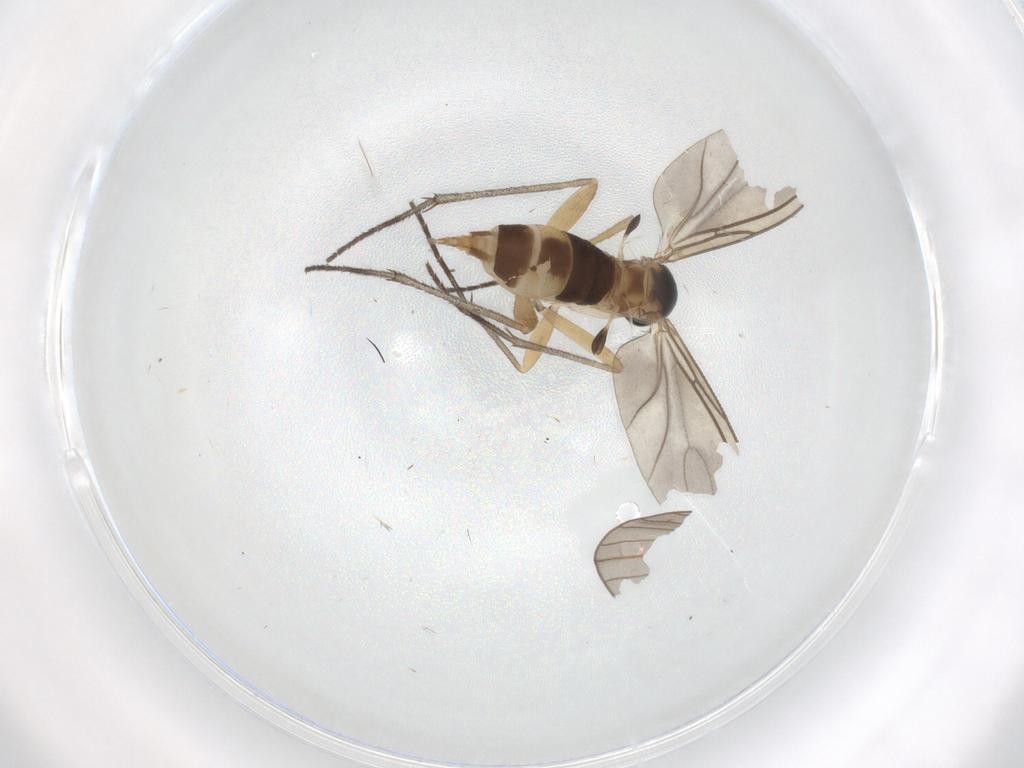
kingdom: Animalia
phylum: Arthropoda
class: Insecta
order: Diptera
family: Sciaridae
